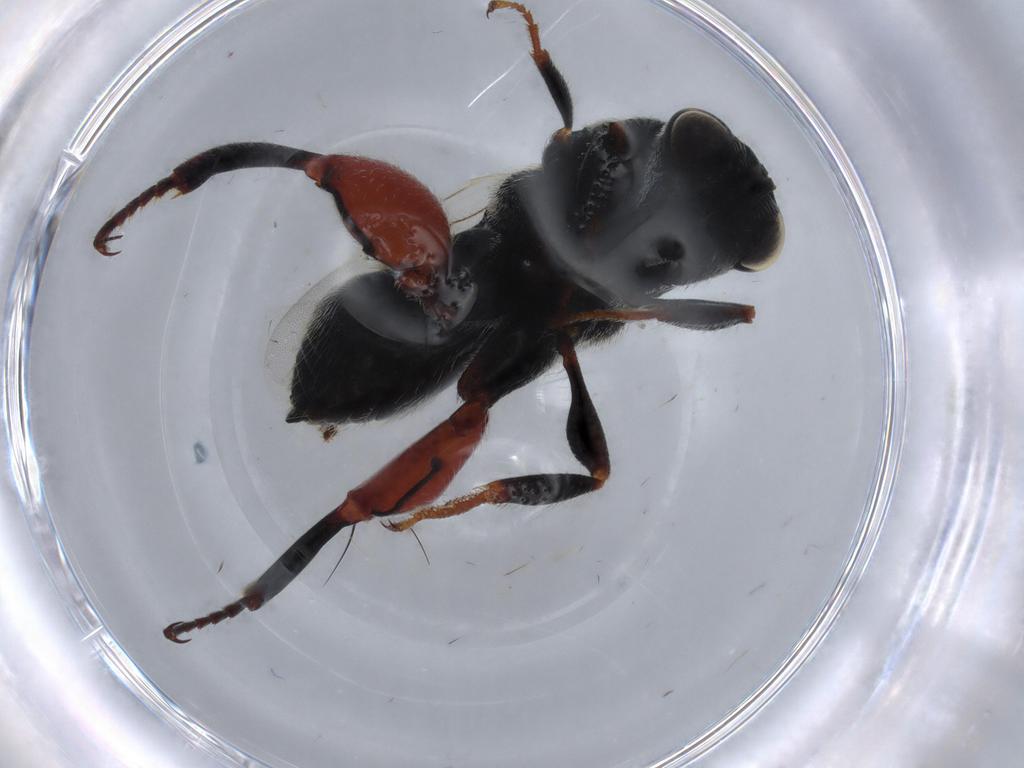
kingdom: Animalia
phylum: Arthropoda
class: Insecta
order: Hymenoptera
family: Chalcididae
